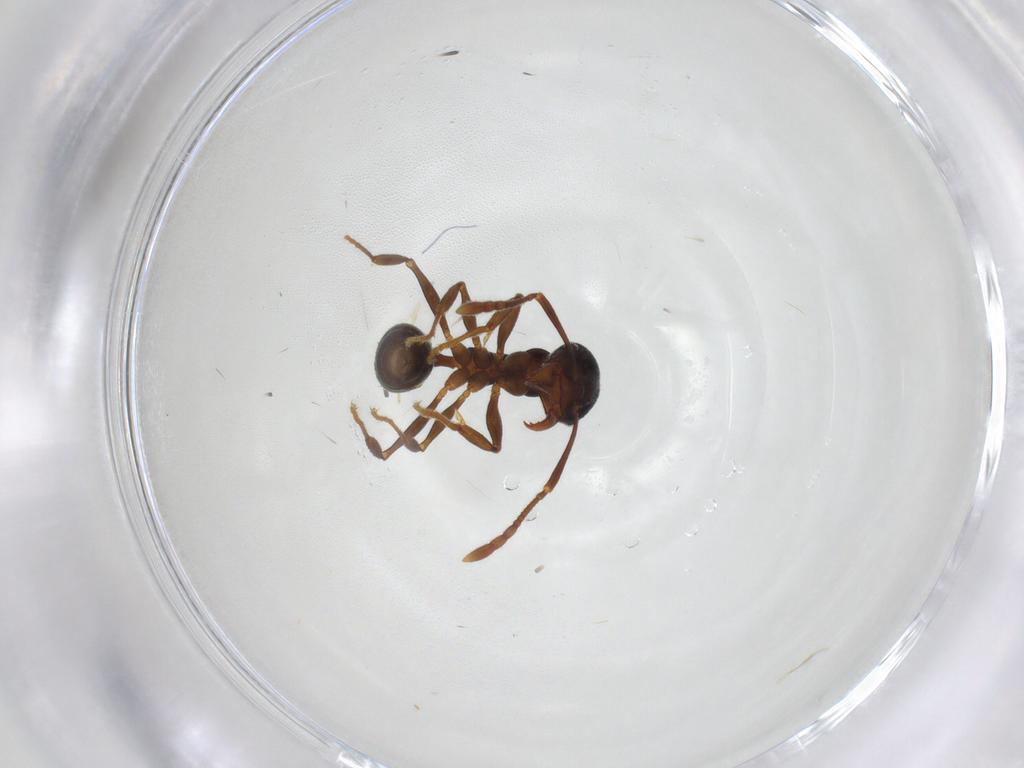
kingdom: Animalia
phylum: Arthropoda
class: Insecta
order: Hymenoptera
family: Formicidae
